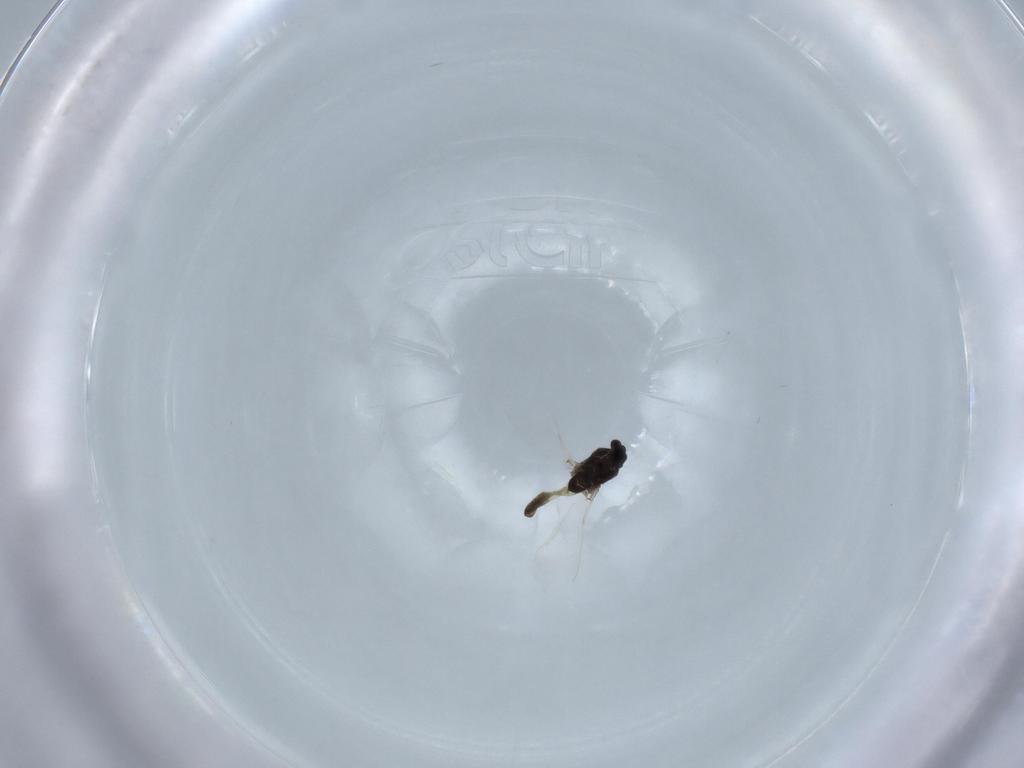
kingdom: Animalia
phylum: Arthropoda
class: Insecta
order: Diptera
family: Chironomidae
